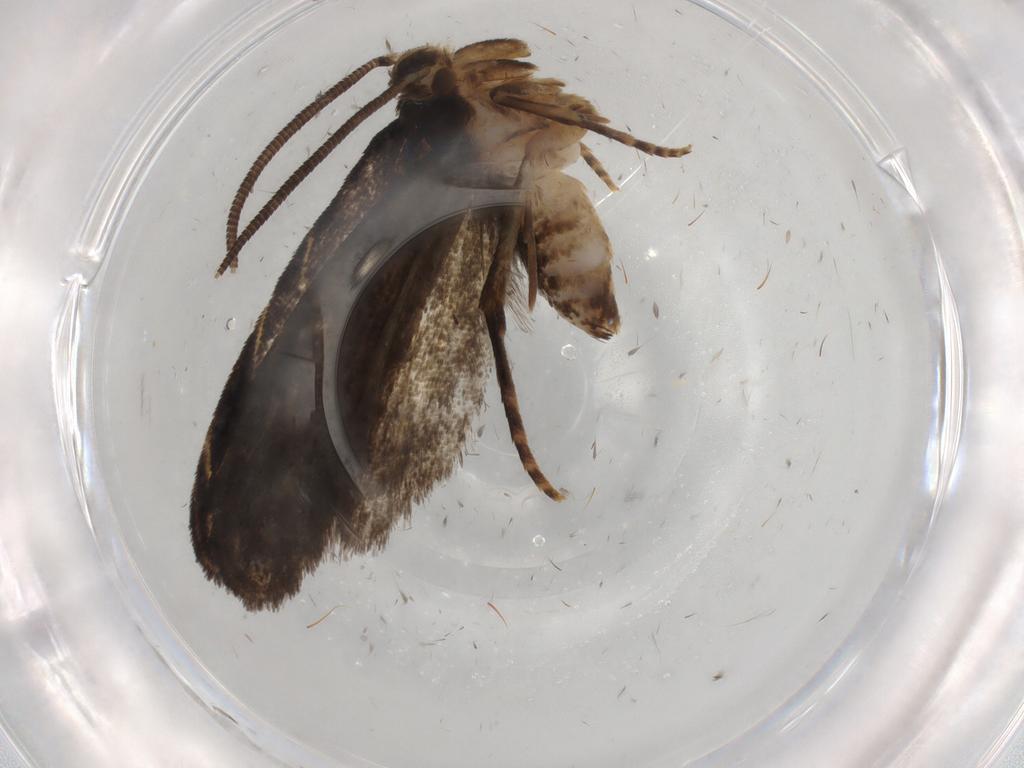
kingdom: Animalia
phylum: Arthropoda
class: Insecta
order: Lepidoptera
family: Dryadaulidae
